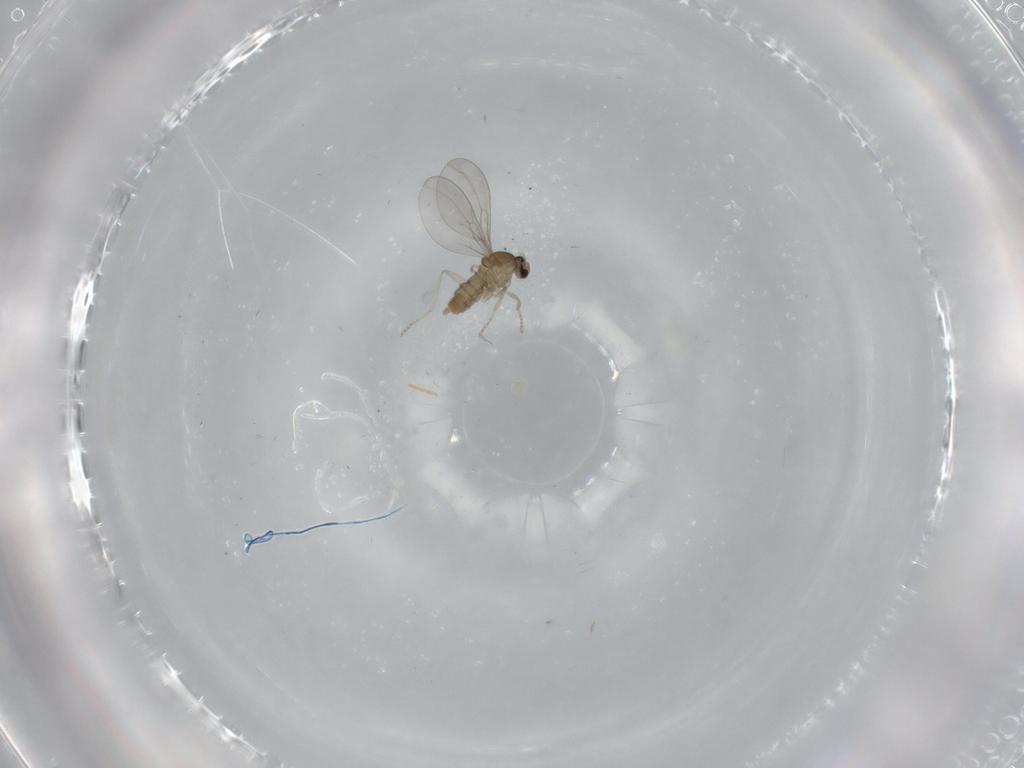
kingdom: Animalia
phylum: Arthropoda
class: Insecta
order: Diptera
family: Cecidomyiidae
